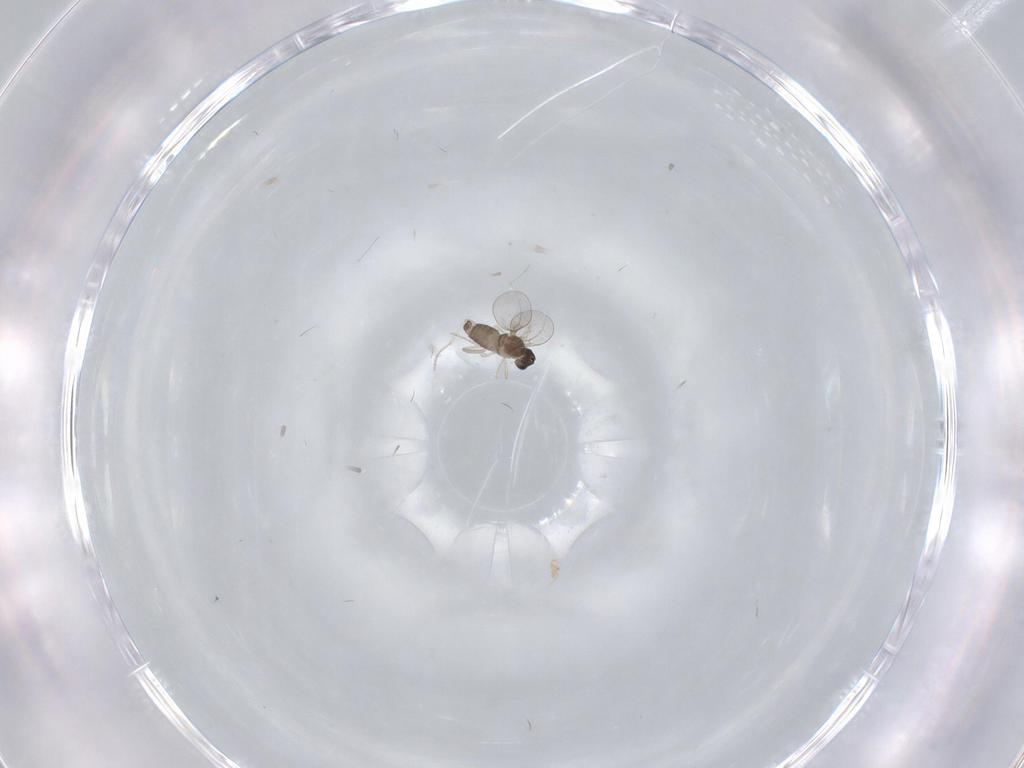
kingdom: Animalia
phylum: Arthropoda
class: Insecta
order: Diptera
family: Cecidomyiidae
